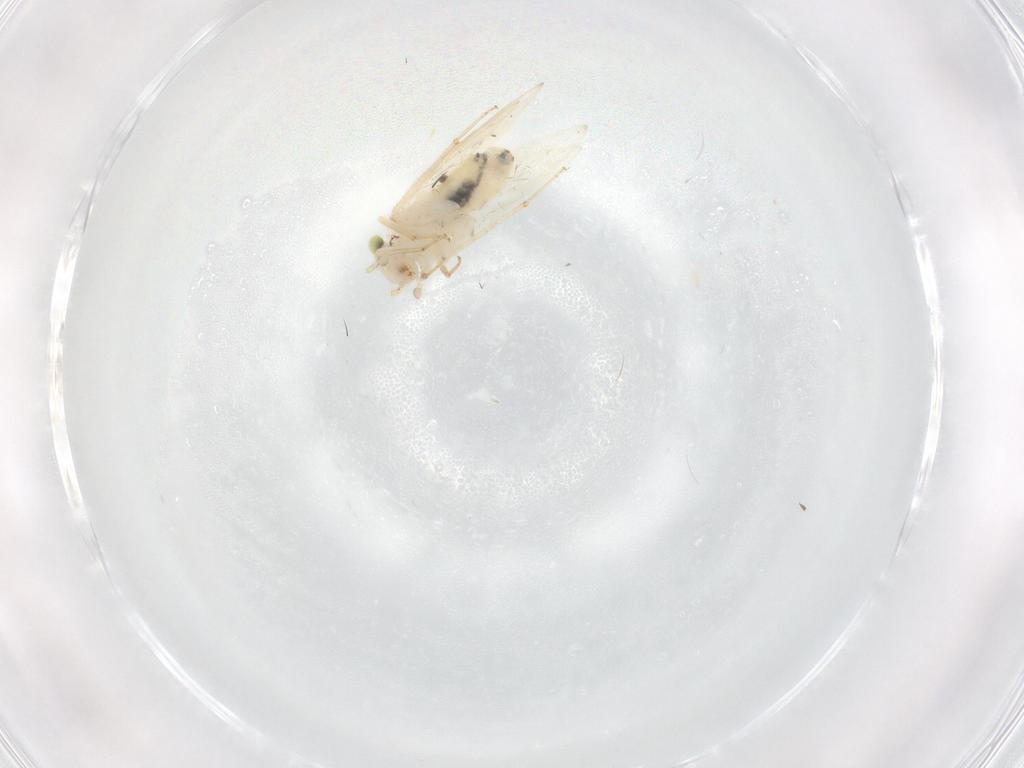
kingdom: Animalia
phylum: Arthropoda
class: Insecta
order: Psocodea
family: Lepidopsocidae
